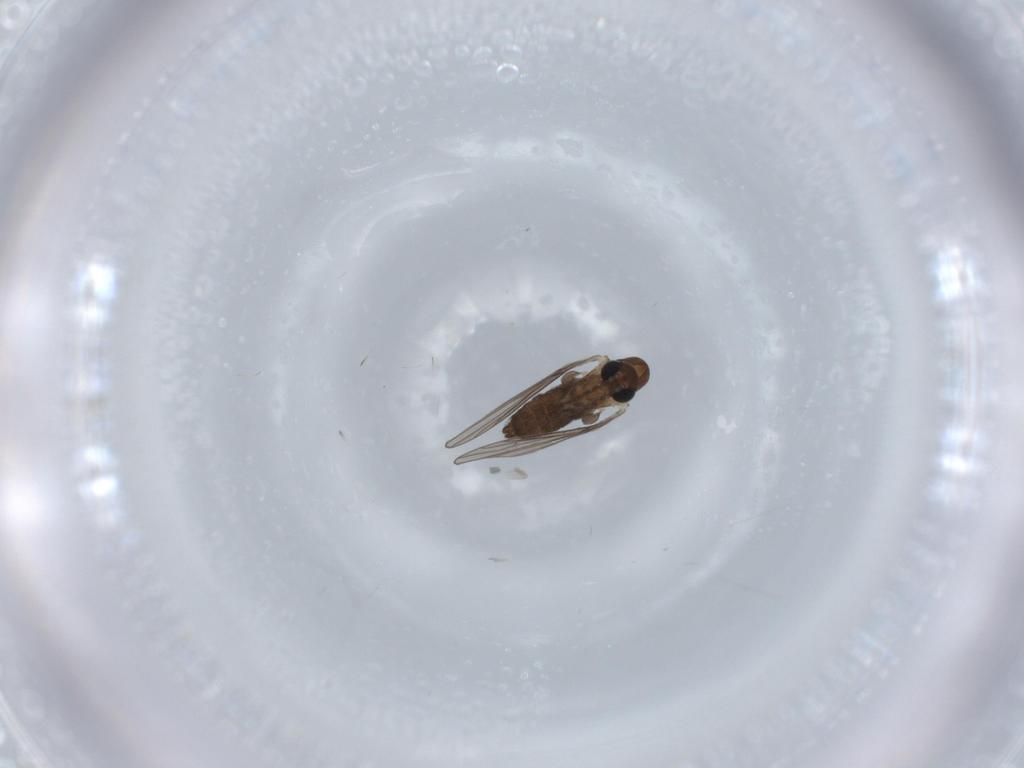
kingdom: Animalia
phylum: Arthropoda
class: Insecta
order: Diptera
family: Psychodidae
